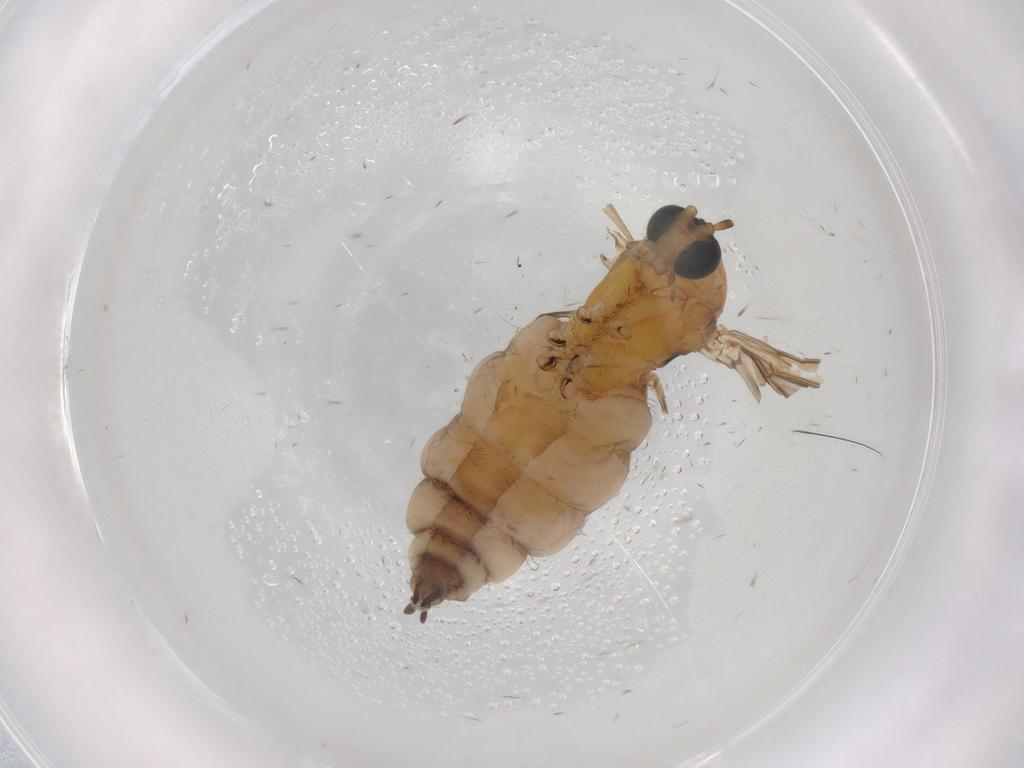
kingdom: Animalia
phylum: Arthropoda
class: Insecta
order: Diptera
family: Sciaridae
